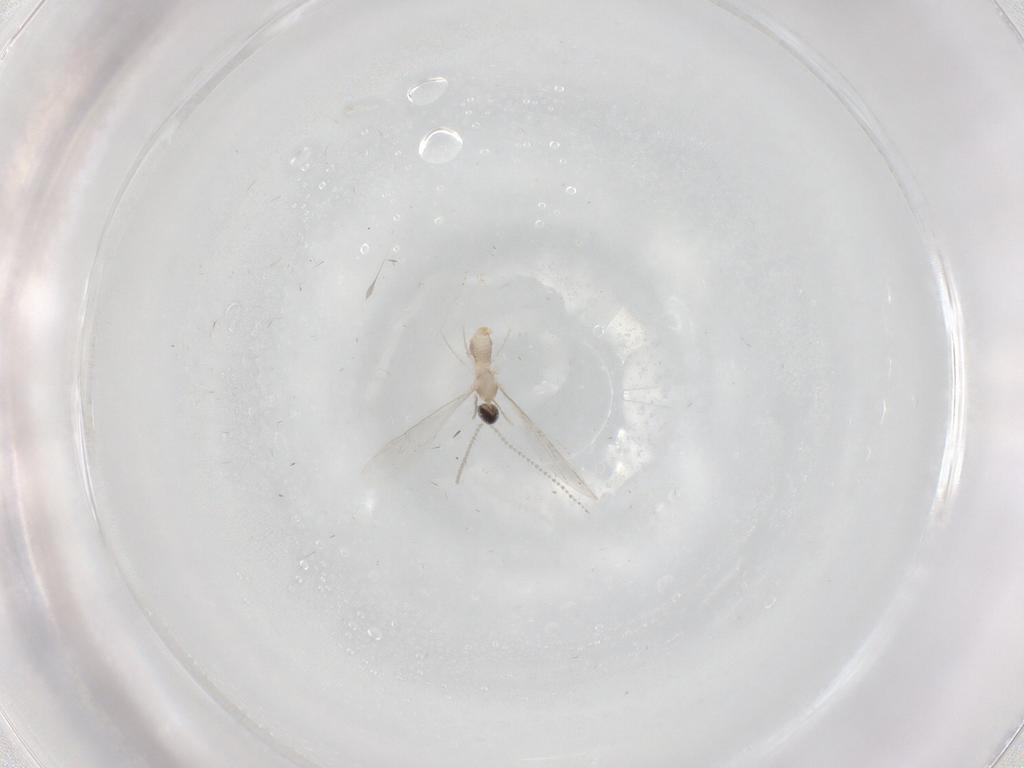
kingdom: Animalia
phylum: Arthropoda
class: Insecta
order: Diptera
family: Cecidomyiidae
